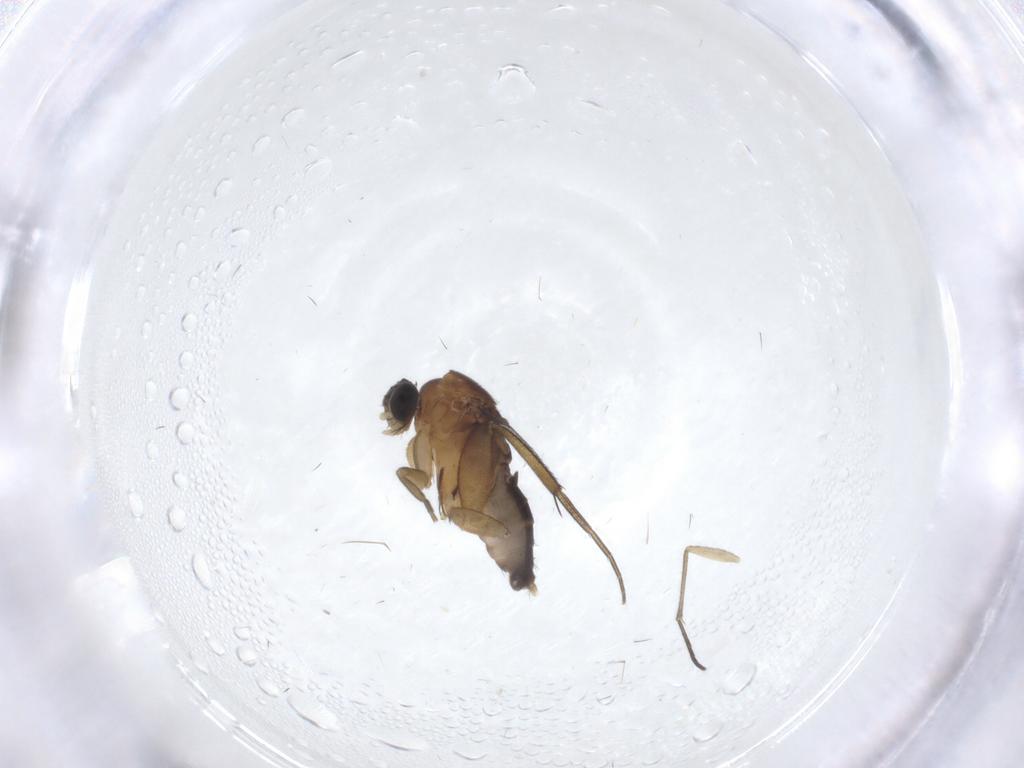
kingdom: Animalia
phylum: Arthropoda
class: Insecta
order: Diptera
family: Phoridae
